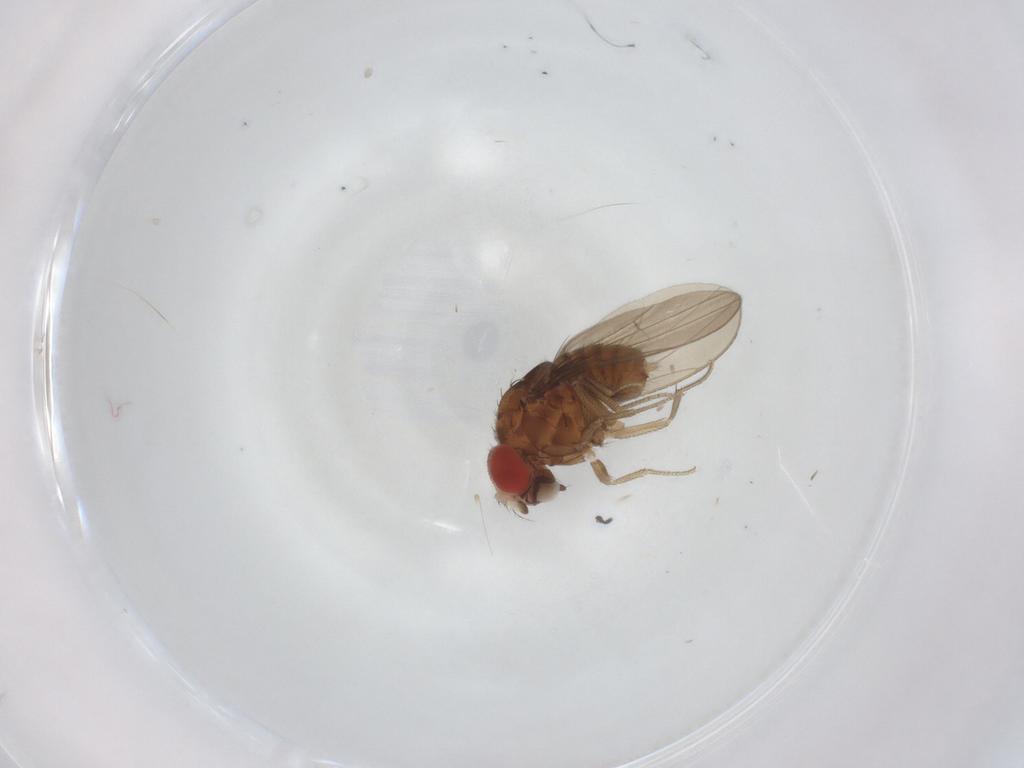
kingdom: Animalia
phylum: Arthropoda
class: Insecta
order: Diptera
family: Drosophilidae
